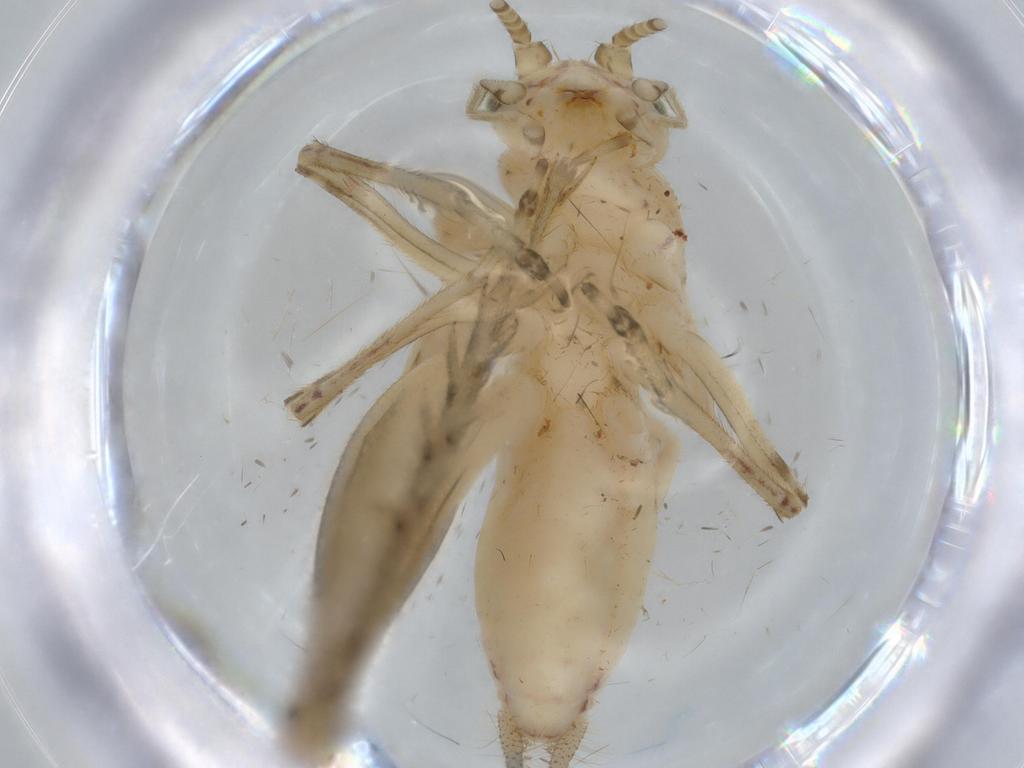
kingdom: Animalia
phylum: Arthropoda
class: Insecta
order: Orthoptera
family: Trigonidiidae
